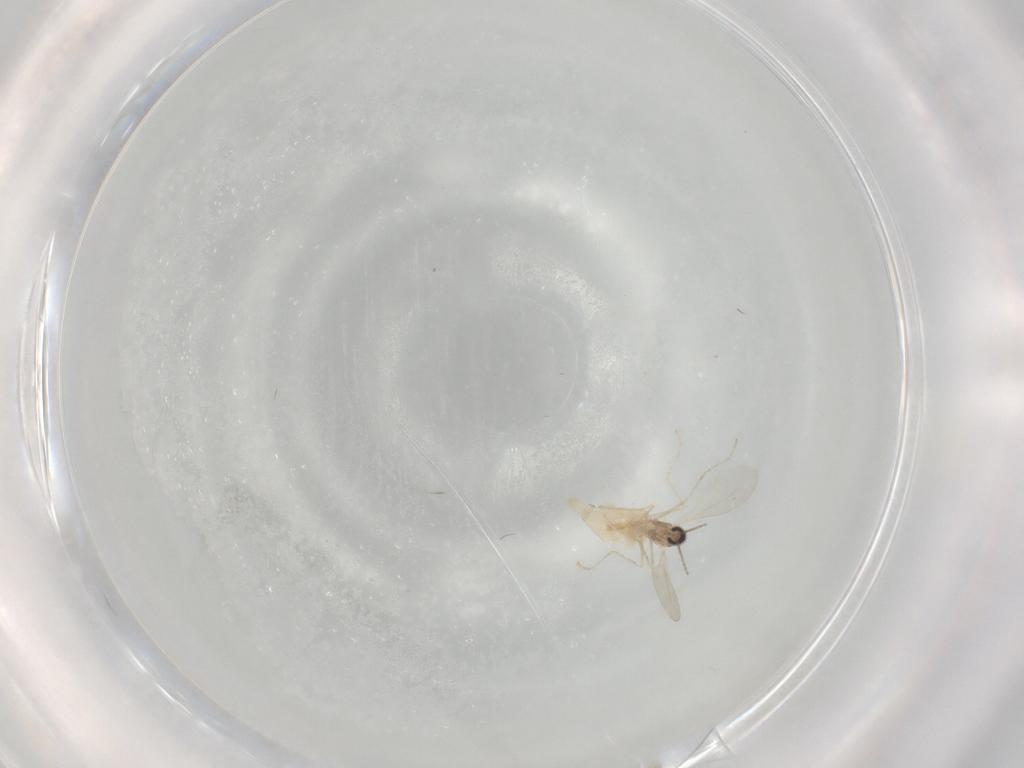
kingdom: Animalia
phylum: Arthropoda
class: Insecta
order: Diptera
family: Cecidomyiidae
